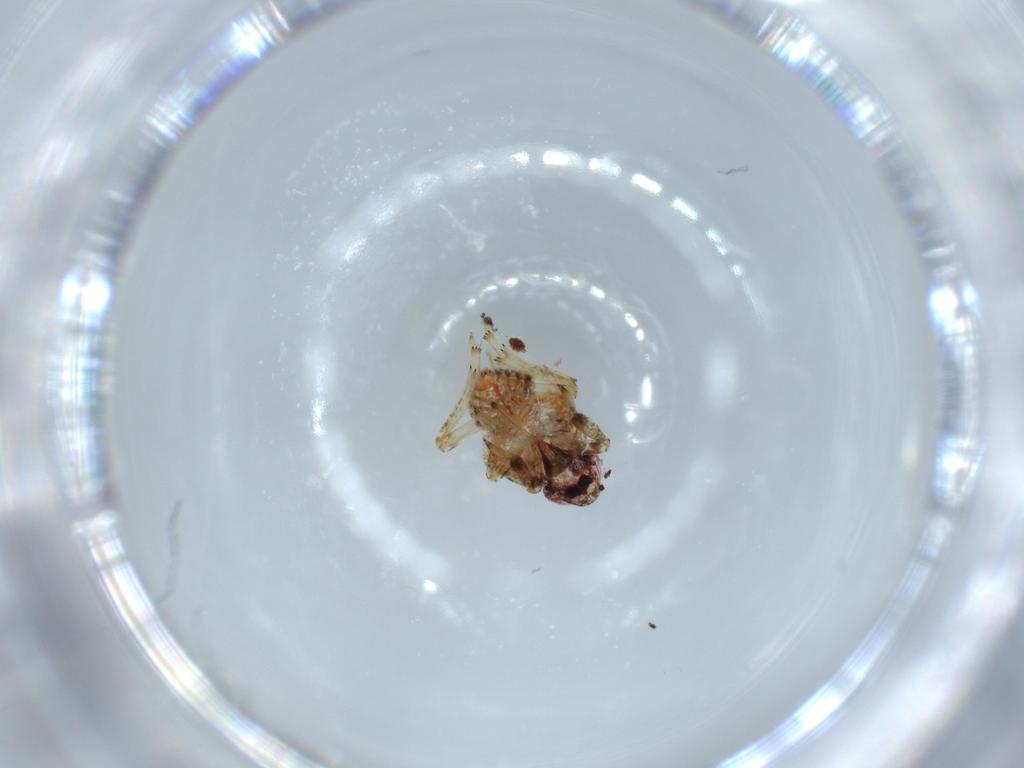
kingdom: Animalia
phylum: Arthropoda
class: Insecta
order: Hemiptera
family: Issidae
